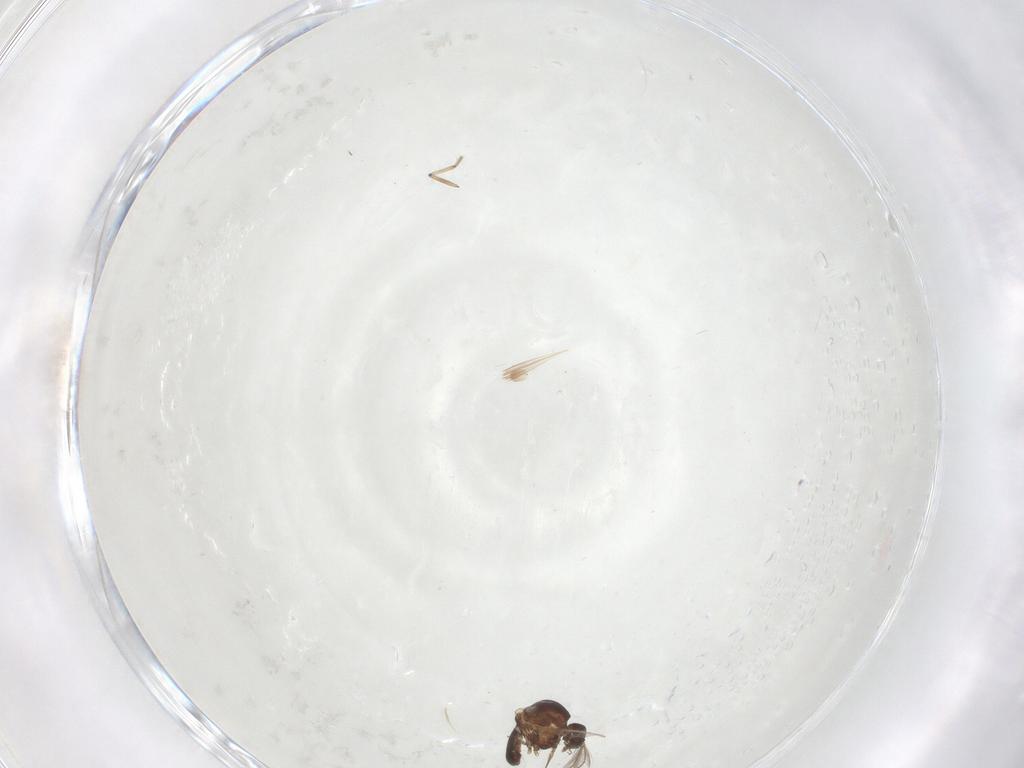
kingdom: Animalia
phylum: Arthropoda
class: Insecta
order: Diptera
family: Ceratopogonidae
